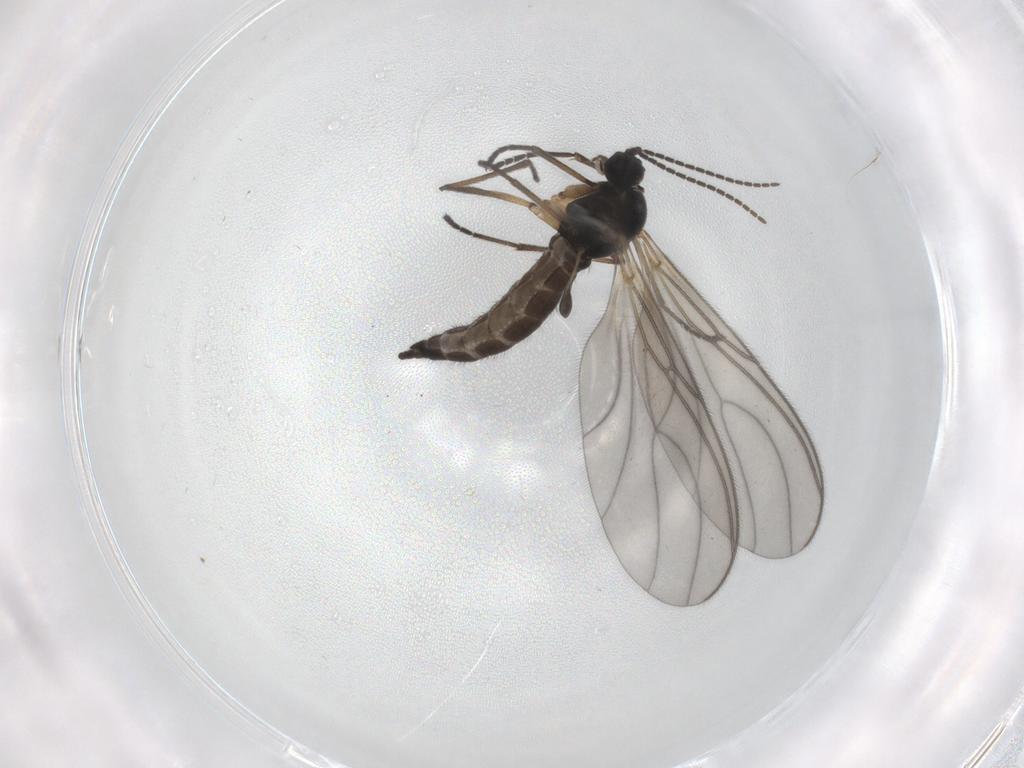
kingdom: Animalia
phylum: Arthropoda
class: Insecta
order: Diptera
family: Sciaridae
